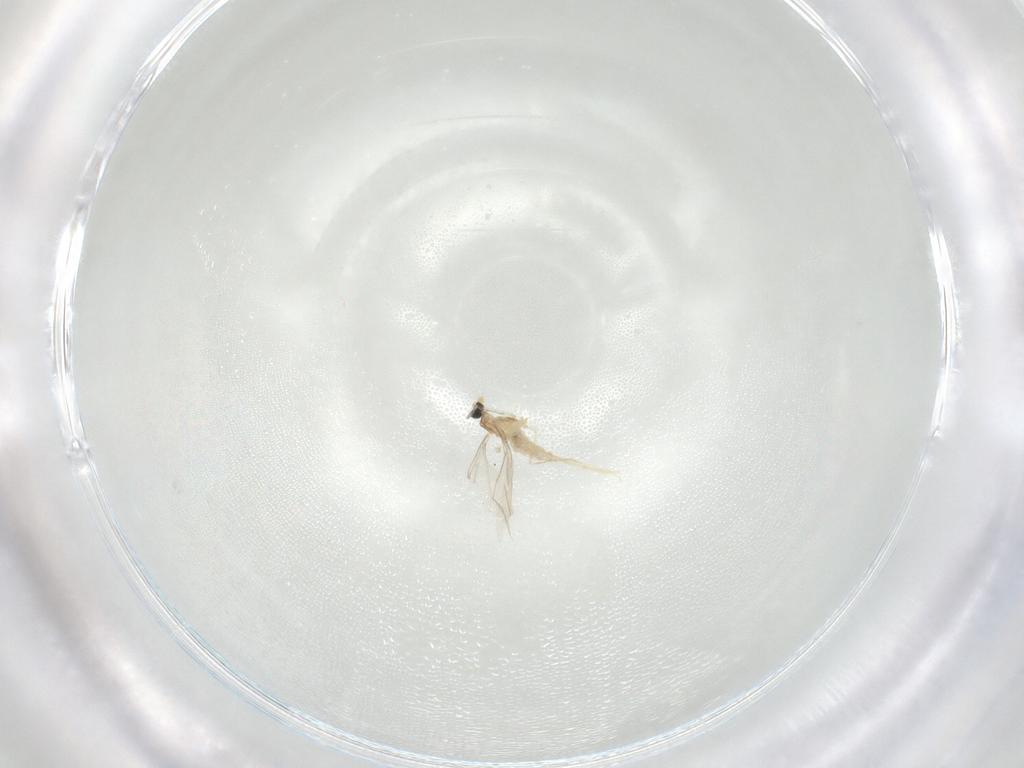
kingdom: Animalia
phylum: Arthropoda
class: Insecta
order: Diptera
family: Cecidomyiidae
